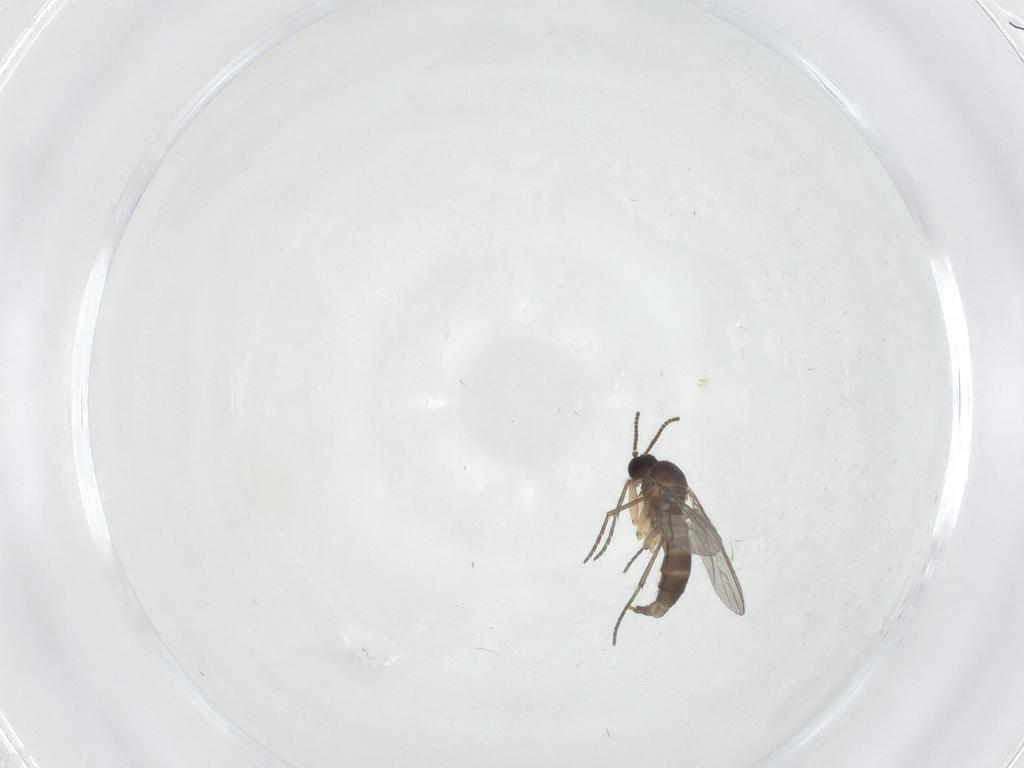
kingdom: Animalia
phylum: Arthropoda
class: Insecta
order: Diptera
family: Sciaridae
